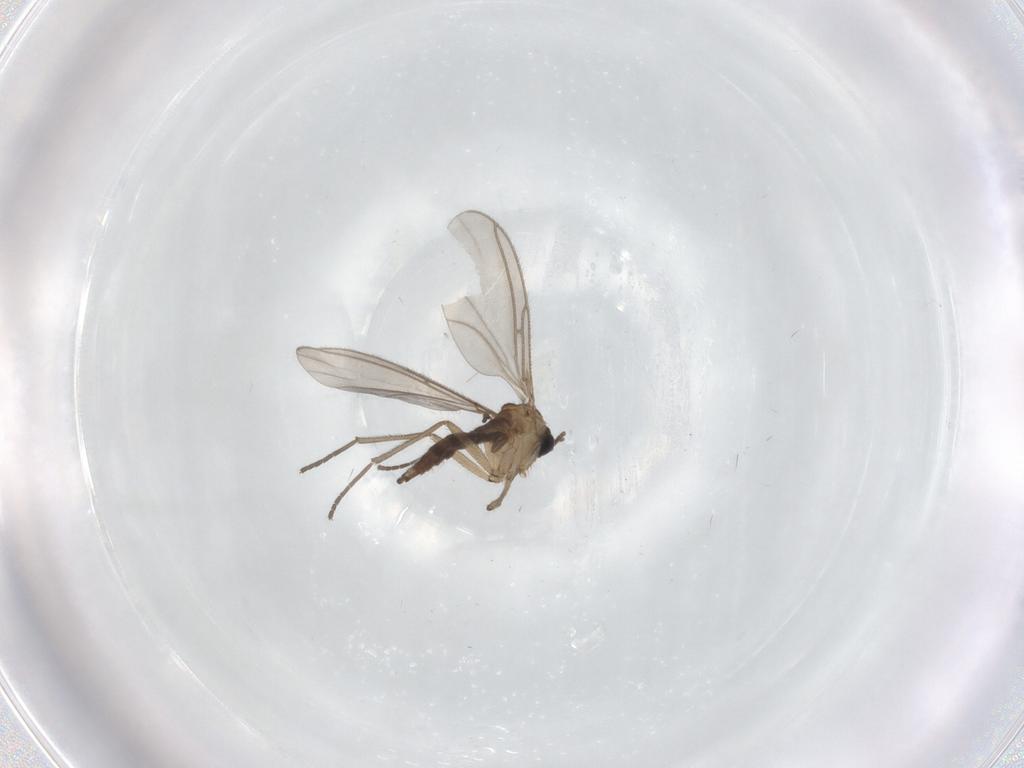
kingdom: Animalia
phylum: Arthropoda
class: Insecta
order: Diptera
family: Sciaridae
